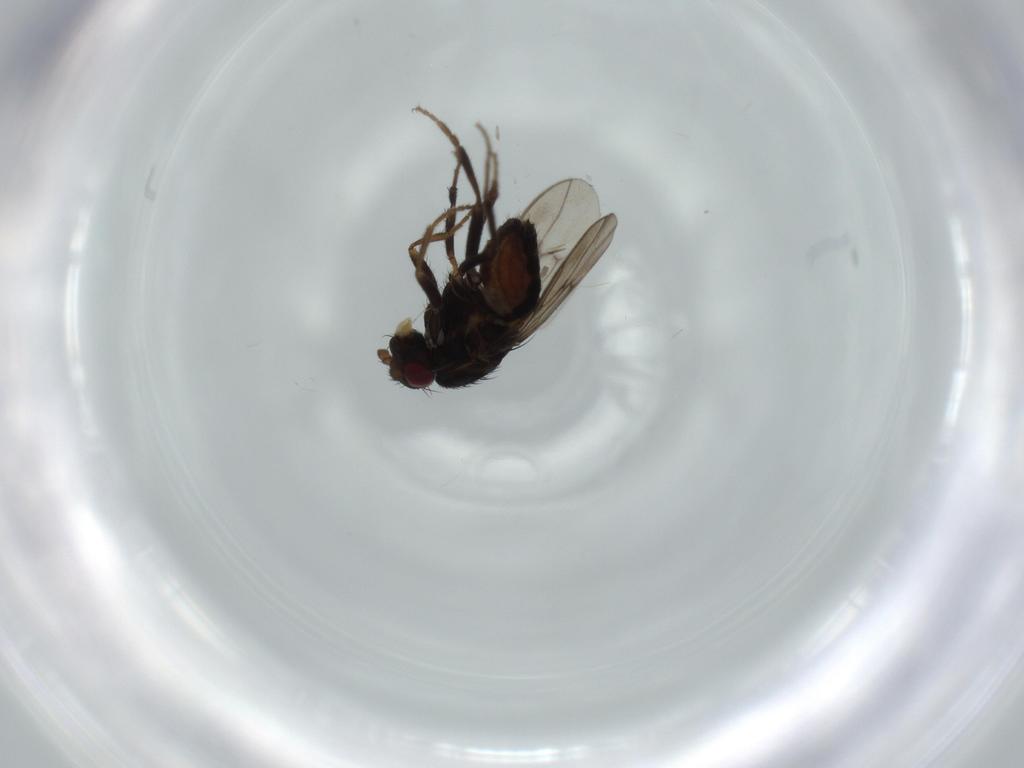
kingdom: Animalia
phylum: Arthropoda
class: Insecta
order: Diptera
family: Sphaeroceridae
